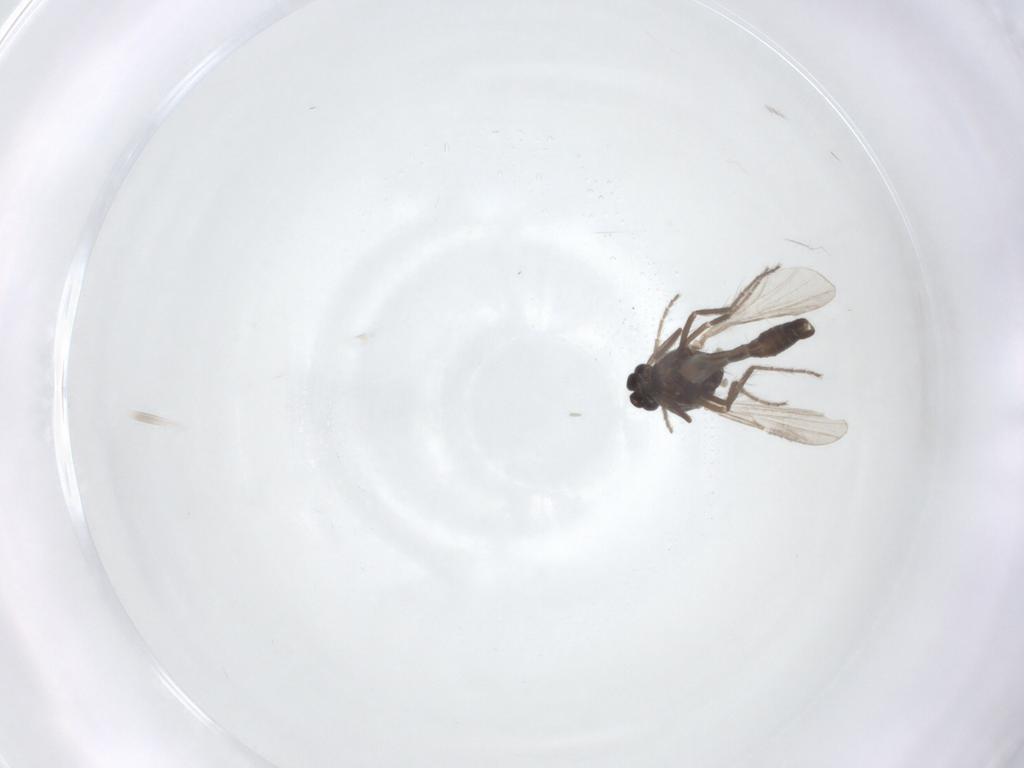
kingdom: Animalia
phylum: Arthropoda
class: Insecta
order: Diptera
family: Ceratopogonidae
